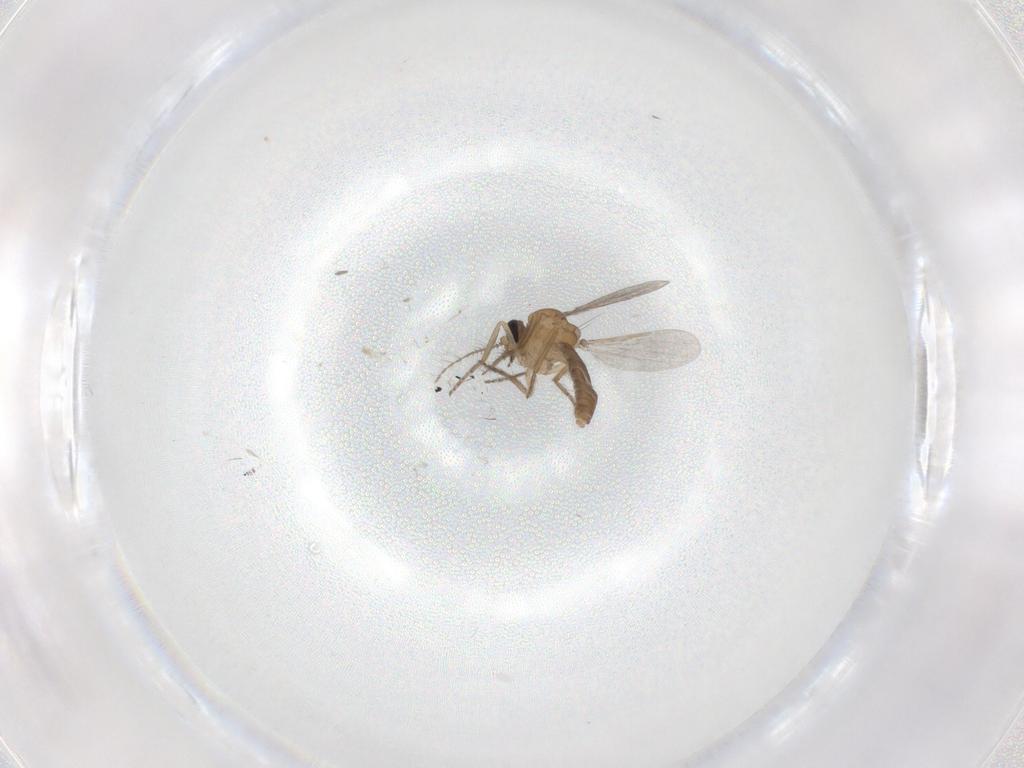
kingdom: Animalia
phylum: Arthropoda
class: Insecta
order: Diptera
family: Ceratopogonidae
